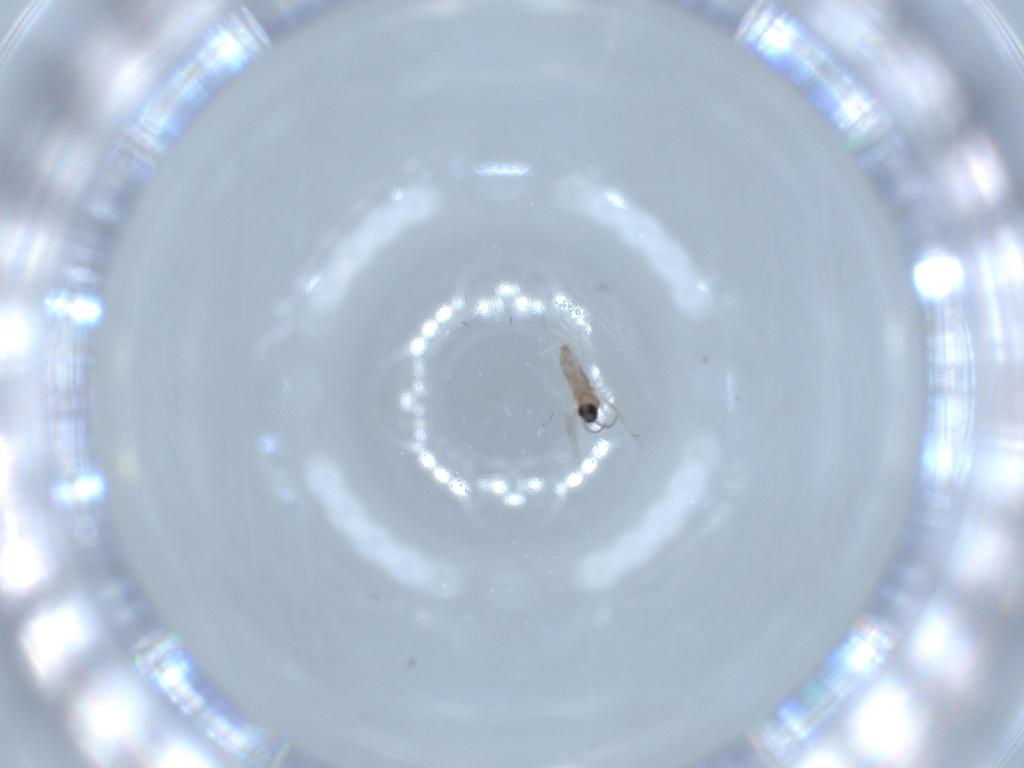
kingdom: Animalia
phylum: Arthropoda
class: Insecta
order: Diptera
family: Cecidomyiidae
